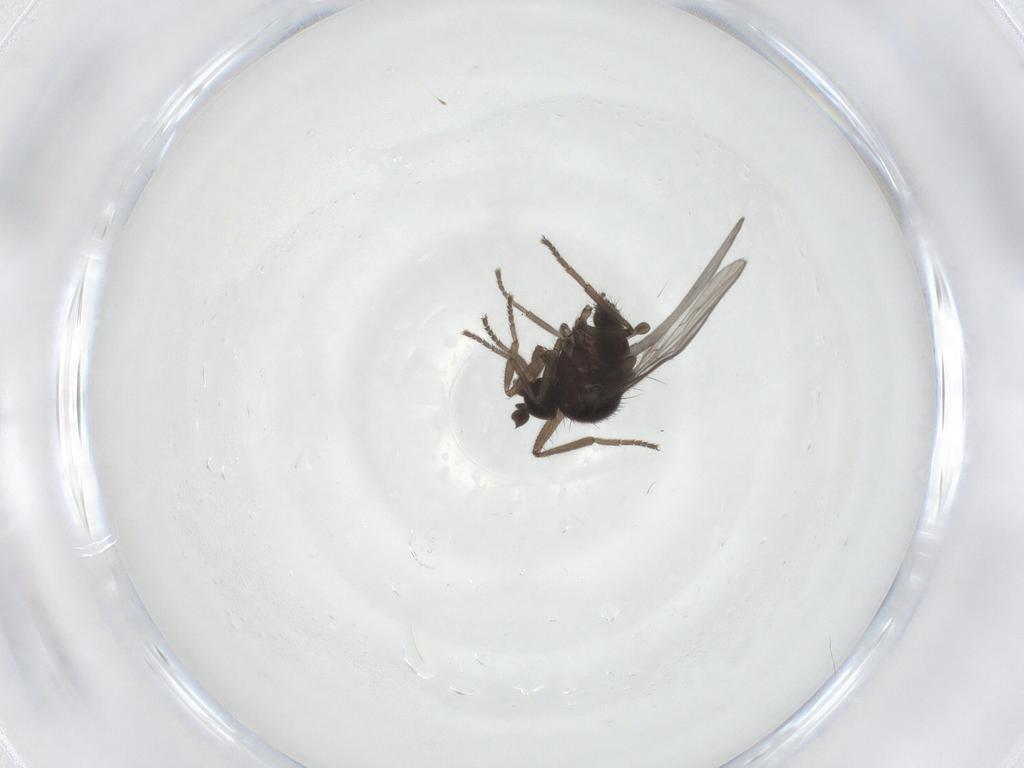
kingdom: Animalia
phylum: Arthropoda
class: Insecta
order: Diptera
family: Hybotidae
